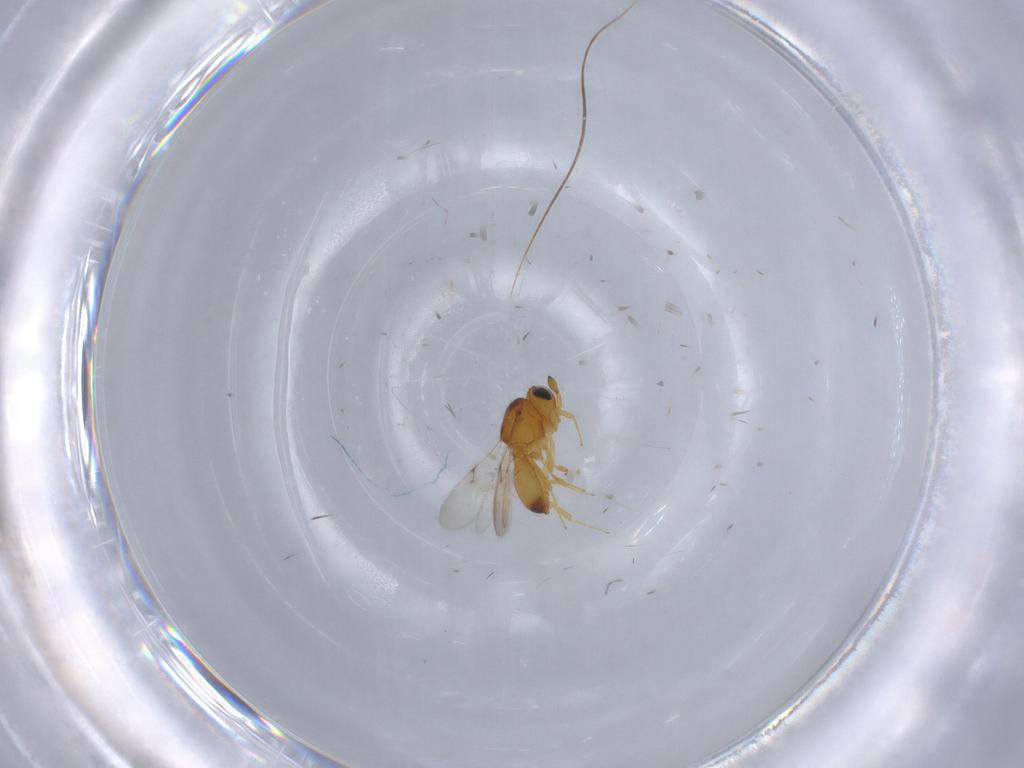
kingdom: Animalia
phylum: Arthropoda
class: Insecta
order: Hymenoptera
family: Scelionidae
